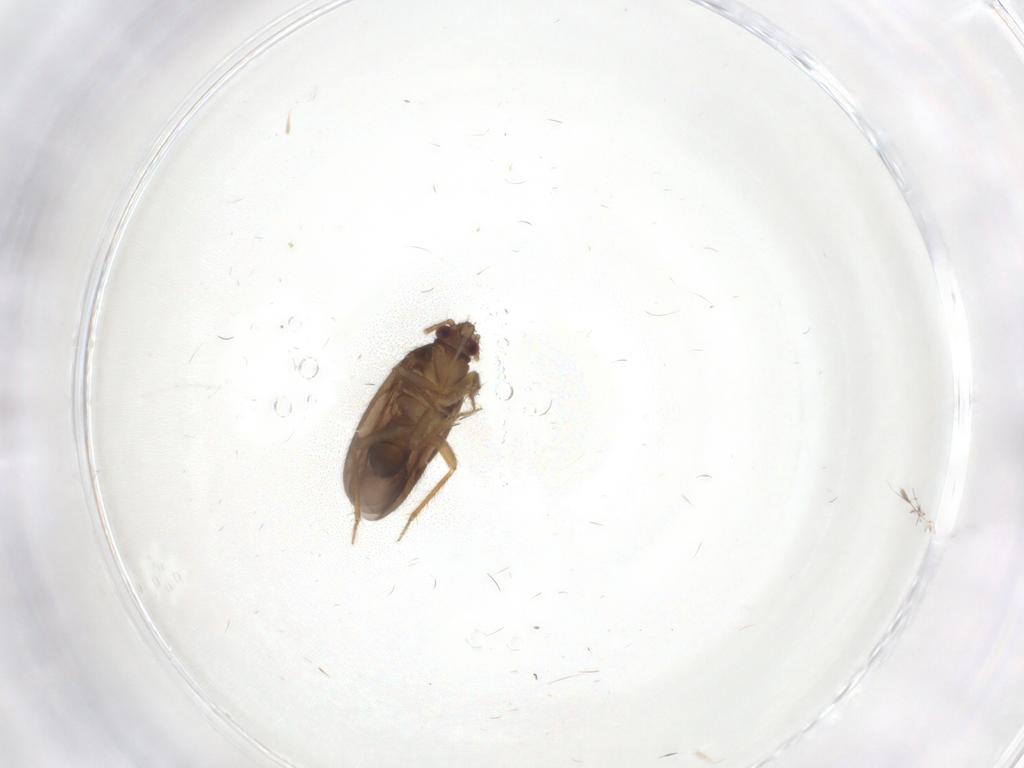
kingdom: Animalia
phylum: Arthropoda
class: Insecta
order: Hemiptera
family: Ceratocombidae
